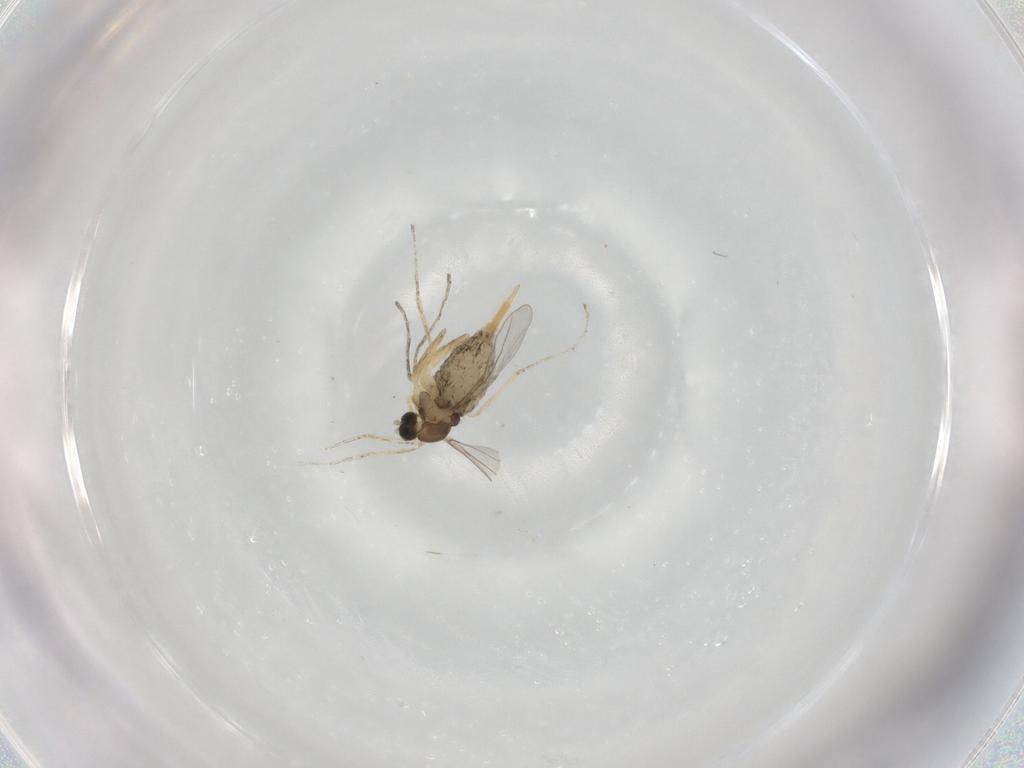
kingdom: Animalia
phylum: Arthropoda
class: Insecta
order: Diptera
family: Cecidomyiidae
